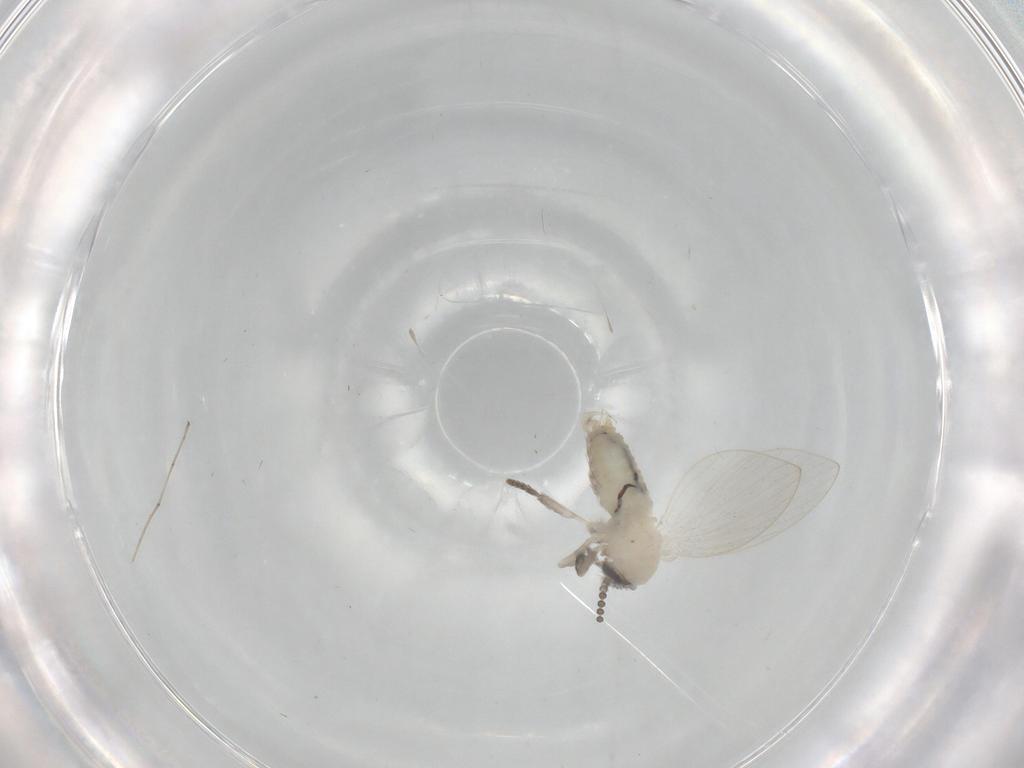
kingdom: Animalia
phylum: Arthropoda
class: Insecta
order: Diptera
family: Psychodidae
